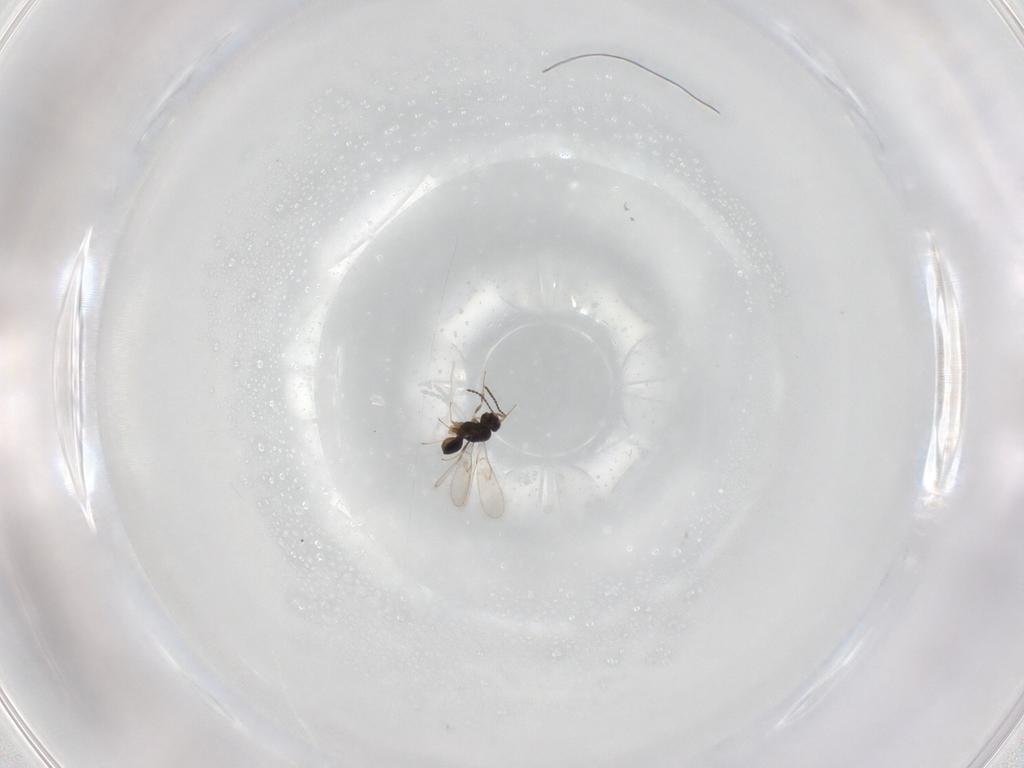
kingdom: Animalia
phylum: Arthropoda
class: Insecta
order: Hymenoptera
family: Scelionidae
